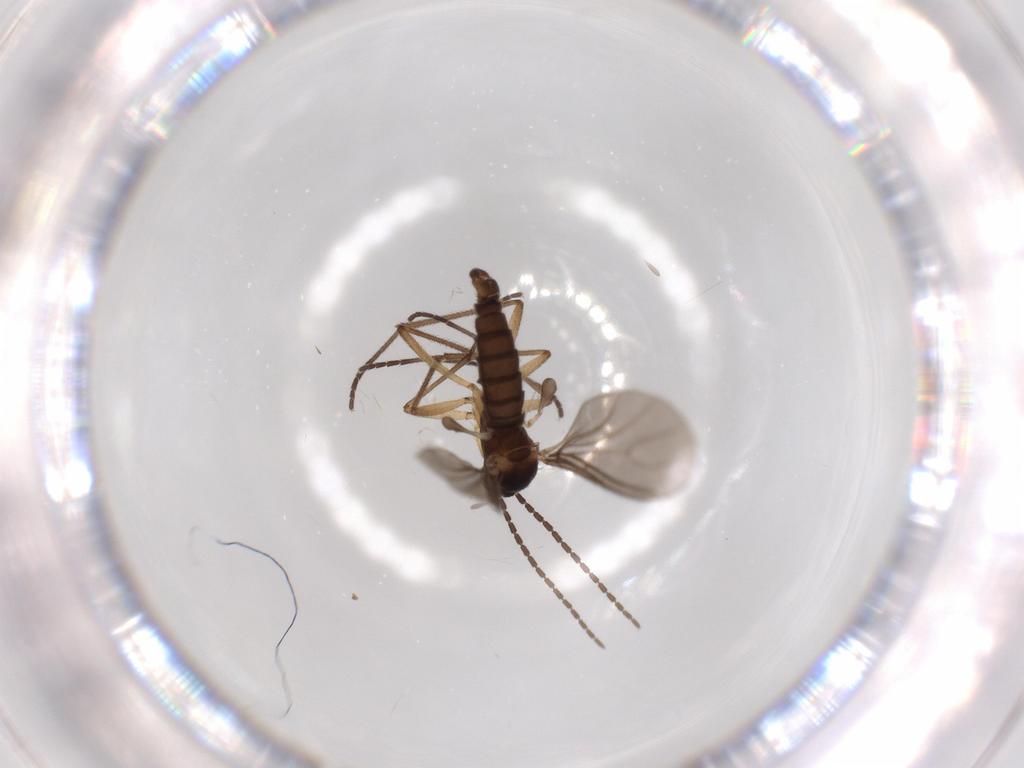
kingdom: Animalia
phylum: Arthropoda
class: Insecta
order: Diptera
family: Sciaridae
